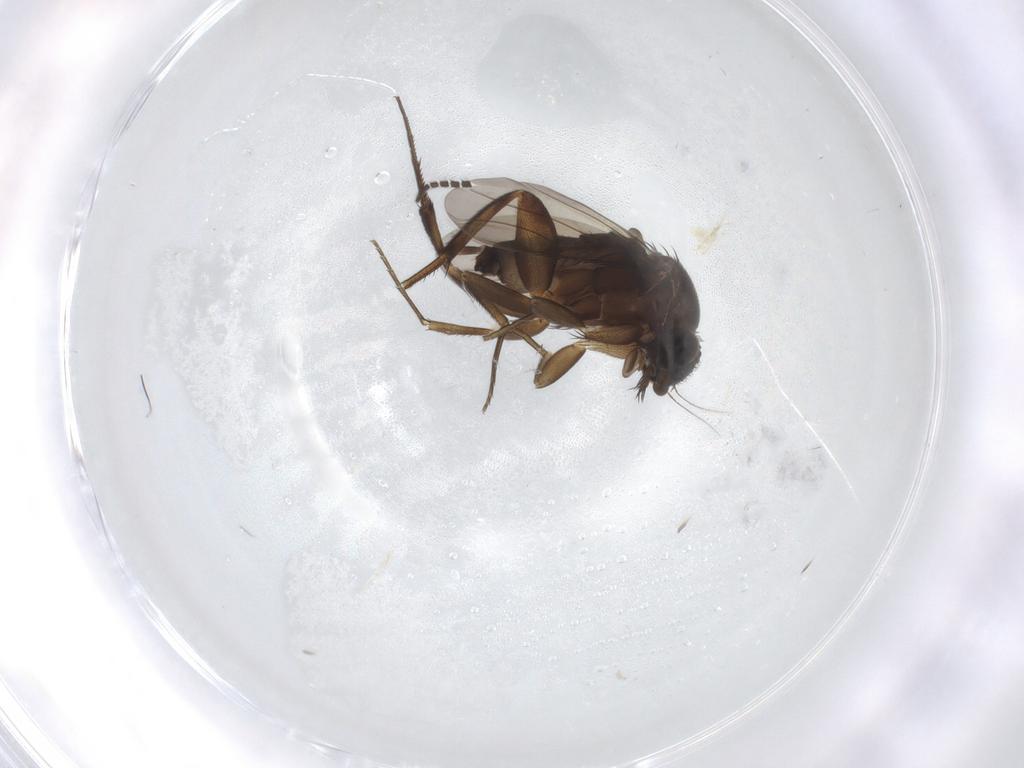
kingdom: Animalia
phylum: Arthropoda
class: Insecta
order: Diptera
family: Phoridae
